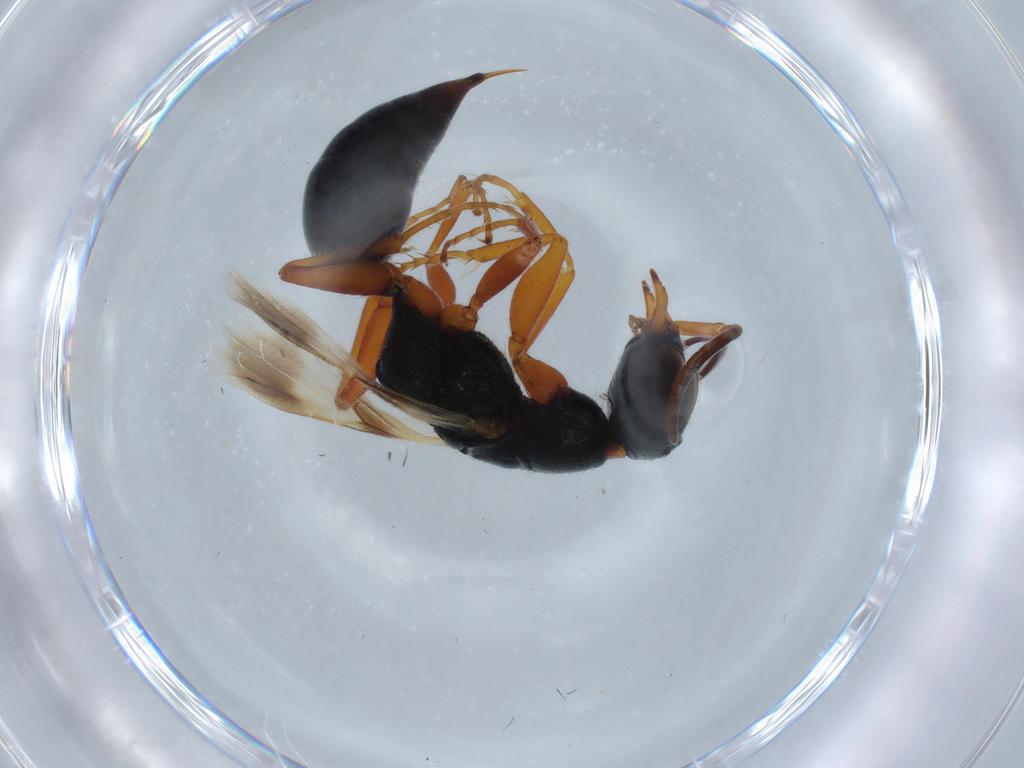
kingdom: Animalia
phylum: Arthropoda
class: Insecta
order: Hymenoptera
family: Bethylidae
